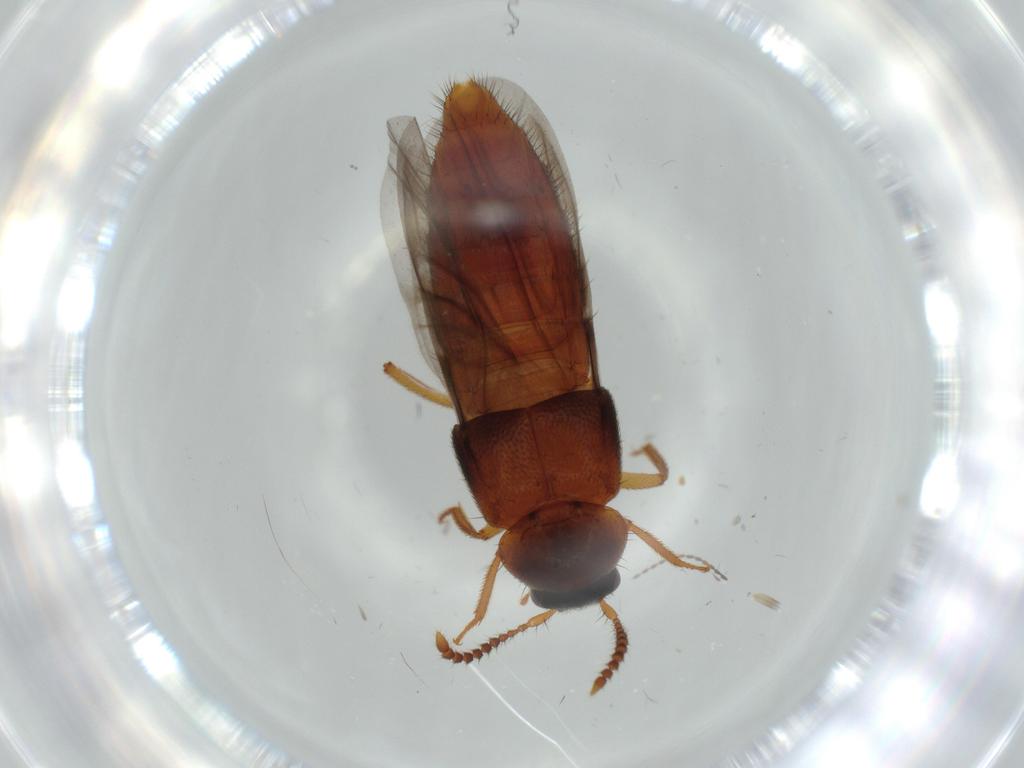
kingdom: Animalia
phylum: Arthropoda
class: Insecta
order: Coleoptera
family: Staphylinidae
